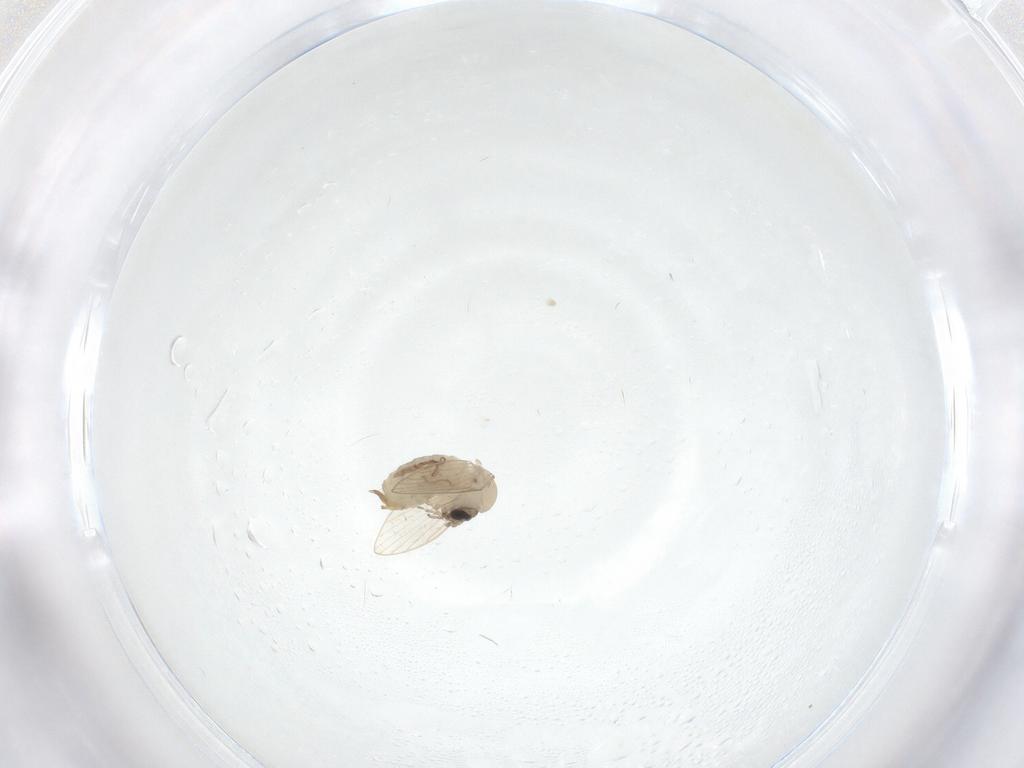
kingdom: Animalia
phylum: Arthropoda
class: Insecta
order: Diptera
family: Psychodidae
